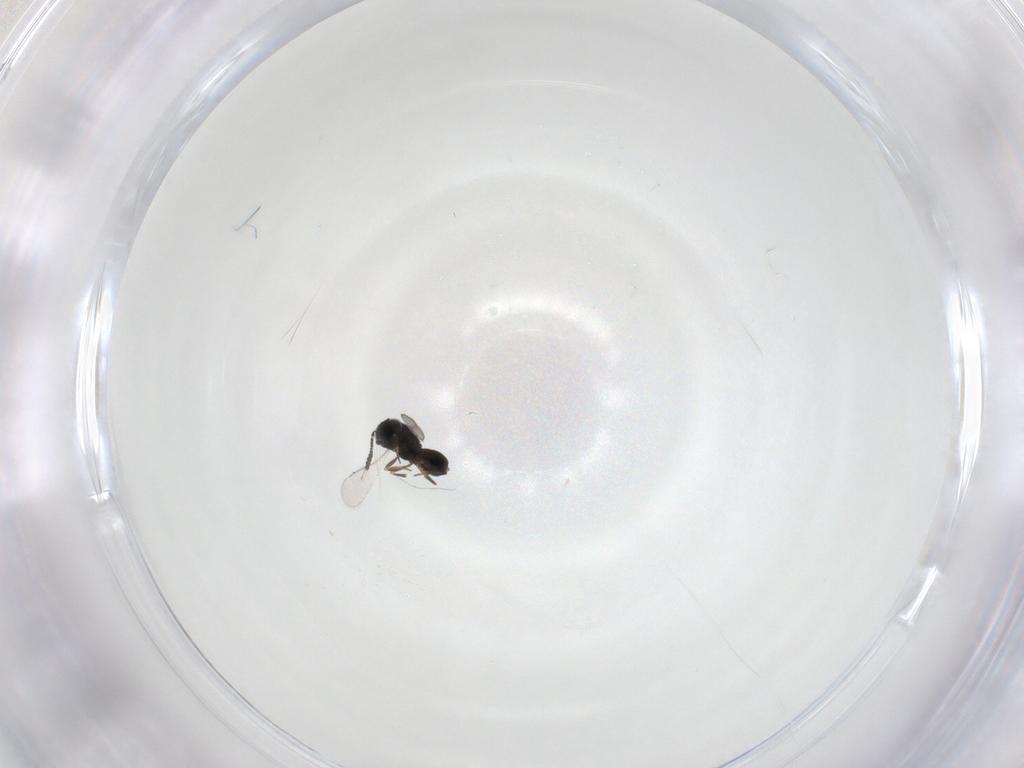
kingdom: Animalia
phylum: Arthropoda
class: Insecta
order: Hymenoptera
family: Scelionidae
